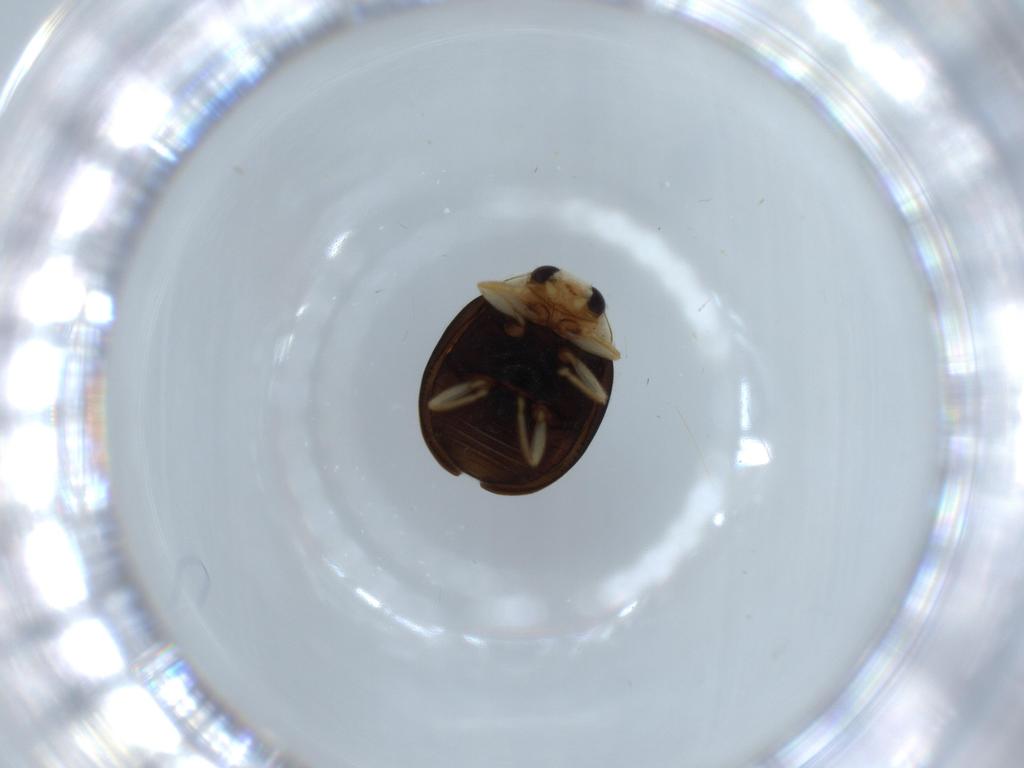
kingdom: Animalia
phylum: Arthropoda
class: Insecta
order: Coleoptera
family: Coccinellidae
